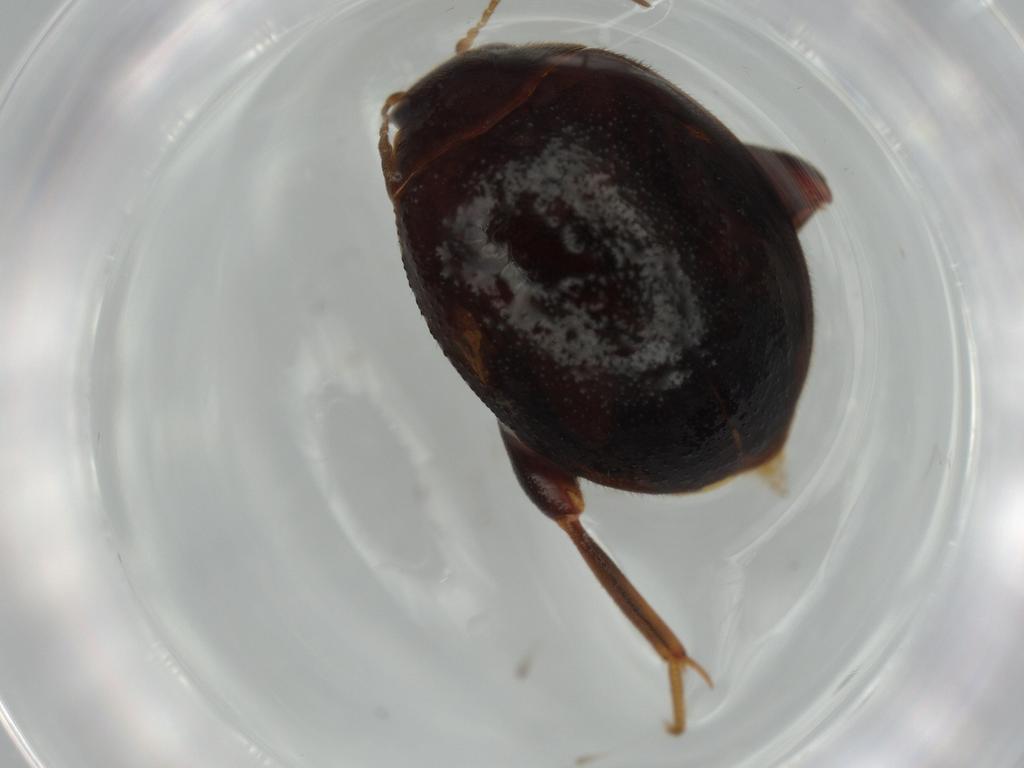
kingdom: Animalia
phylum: Arthropoda
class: Insecta
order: Coleoptera
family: Scirtidae
